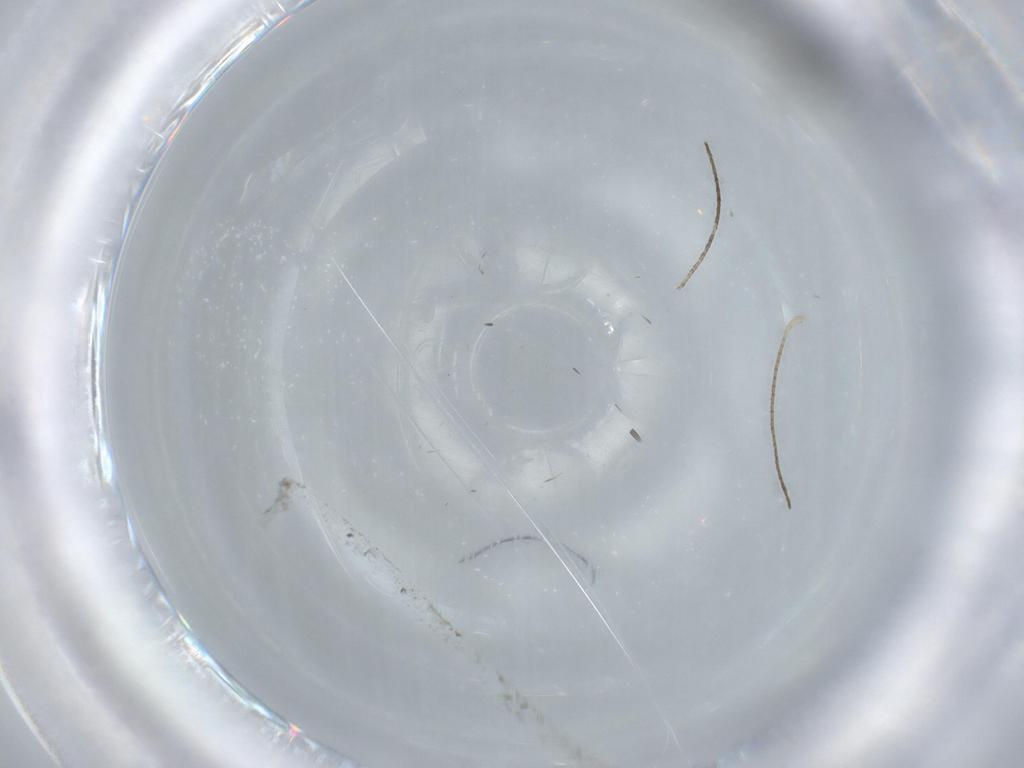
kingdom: Animalia
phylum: Arthropoda
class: Insecta
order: Hymenoptera
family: Bethylidae
